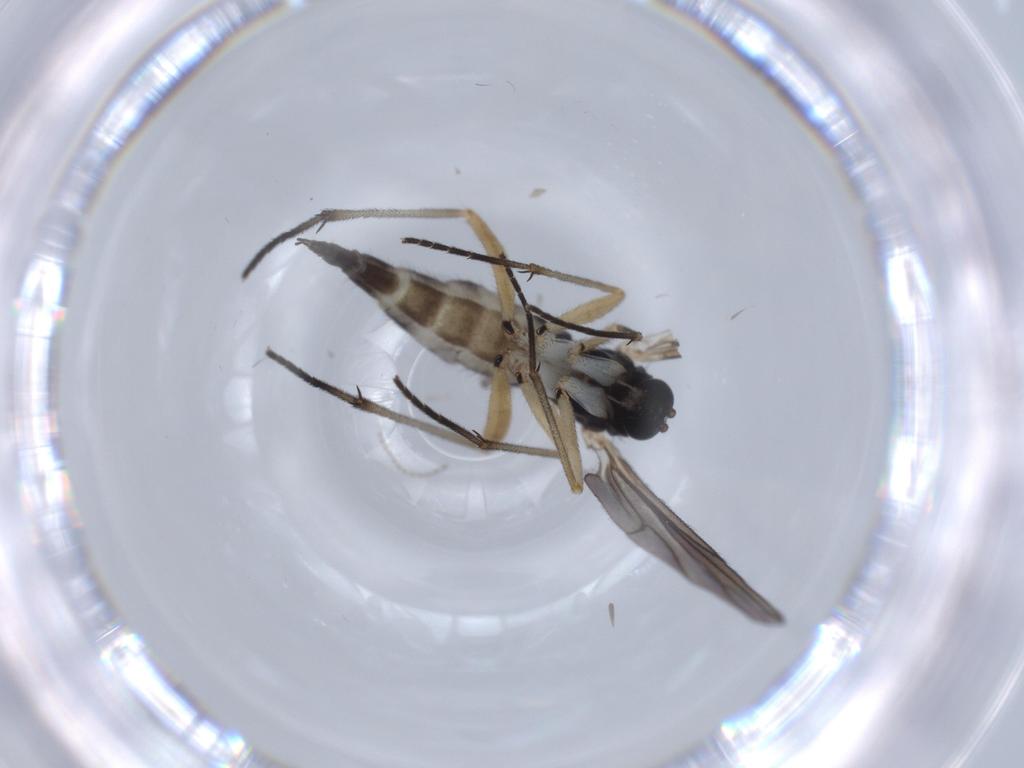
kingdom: Animalia
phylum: Arthropoda
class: Insecta
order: Diptera
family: Sciaridae
